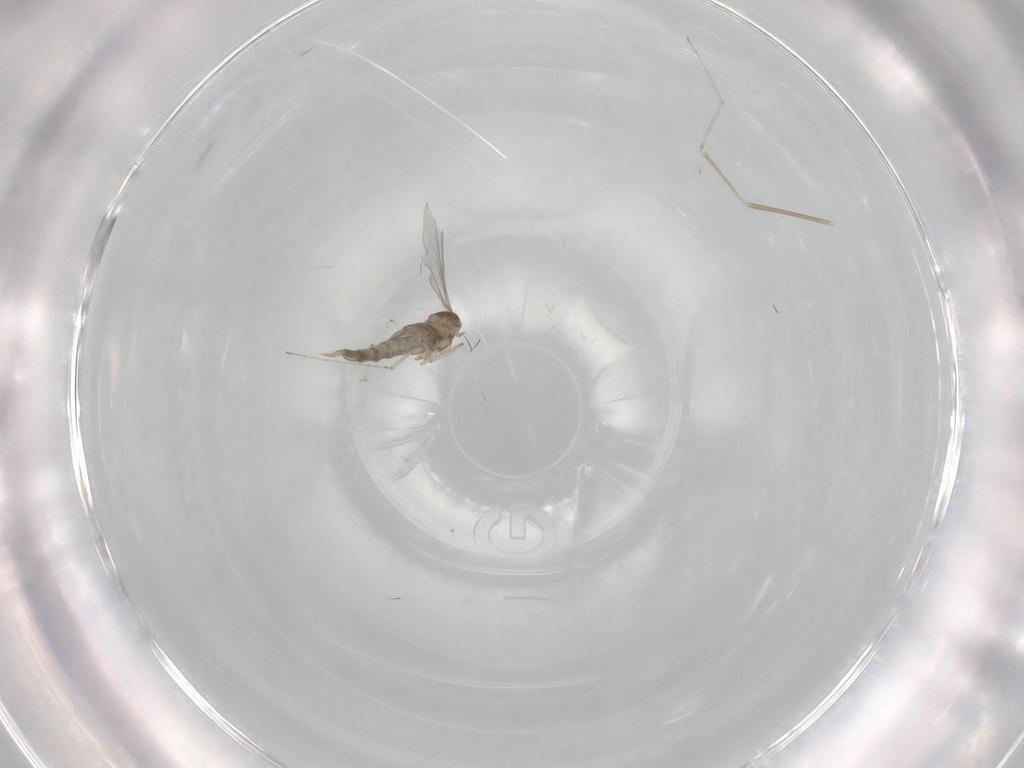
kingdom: Animalia
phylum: Arthropoda
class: Insecta
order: Diptera
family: Cecidomyiidae
